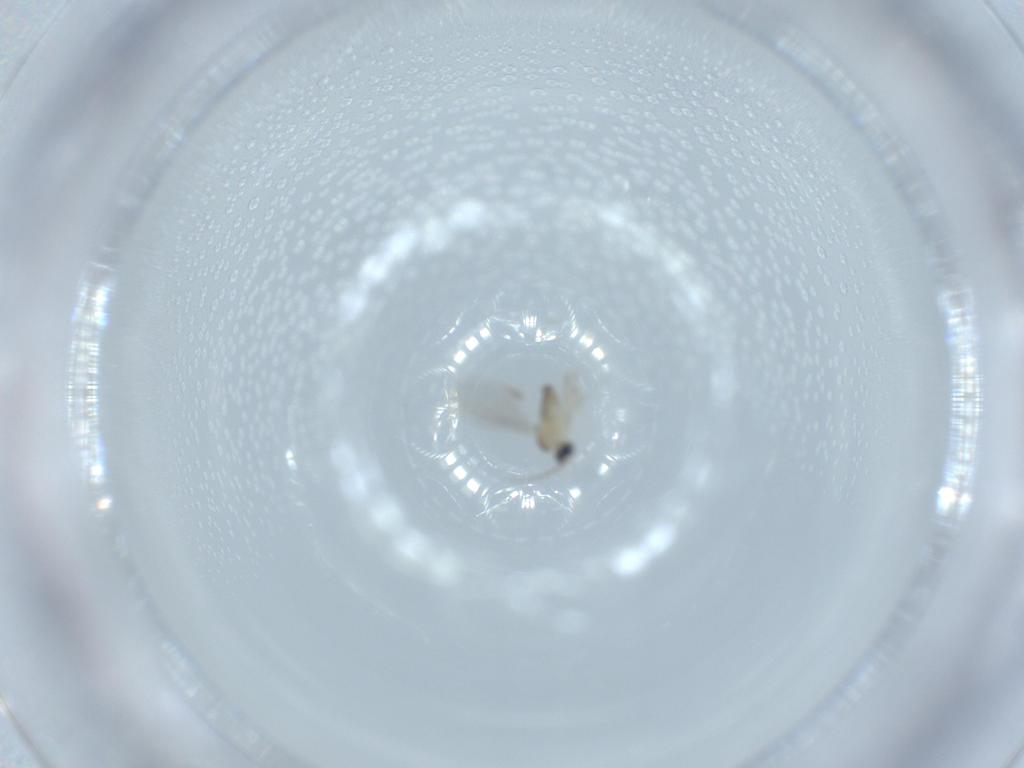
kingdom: Animalia
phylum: Arthropoda
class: Insecta
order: Diptera
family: Cecidomyiidae
